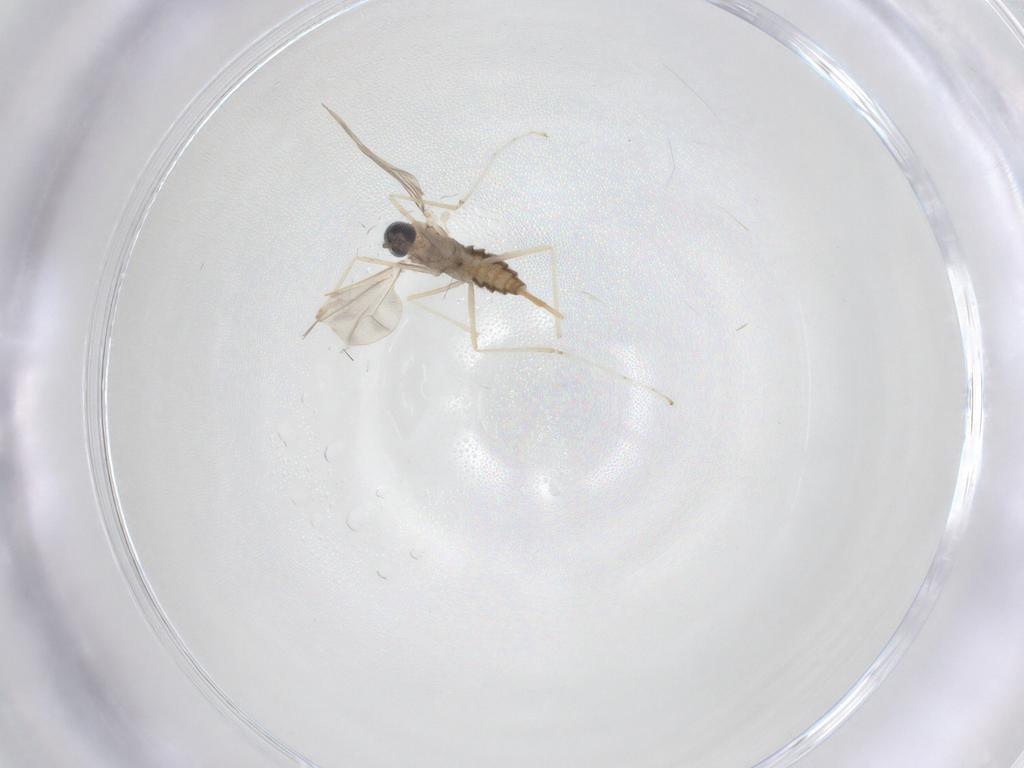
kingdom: Animalia
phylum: Arthropoda
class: Insecta
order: Diptera
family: Cecidomyiidae
